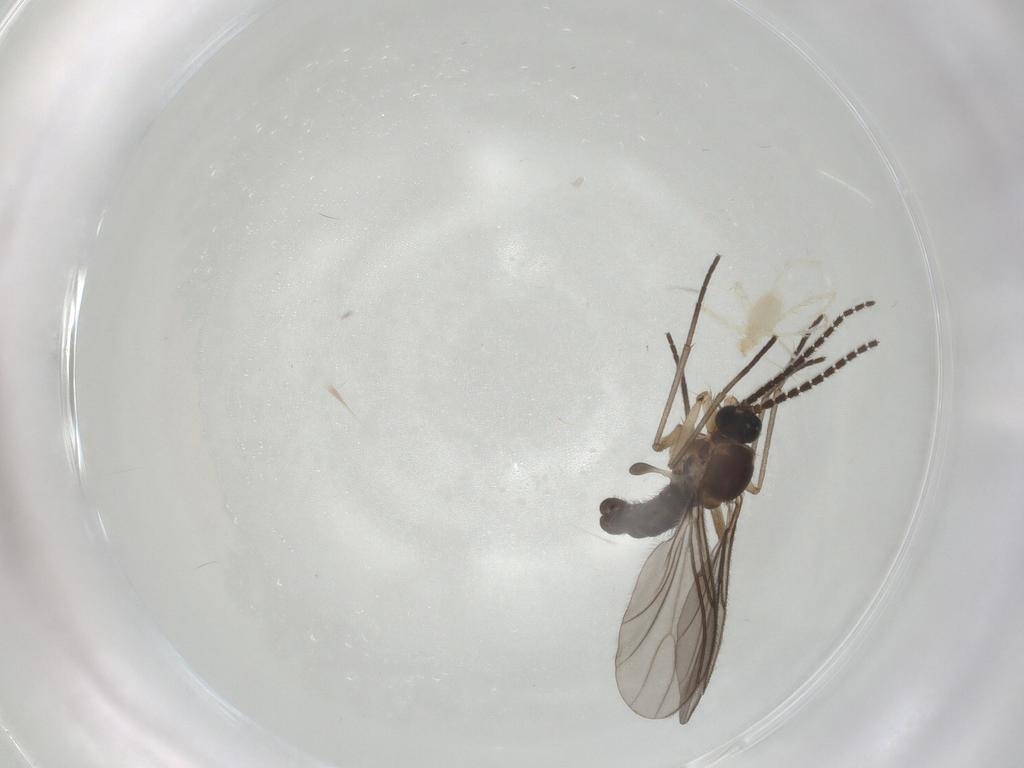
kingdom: Animalia
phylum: Arthropoda
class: Insecta
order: Diptera
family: Sciaridae
